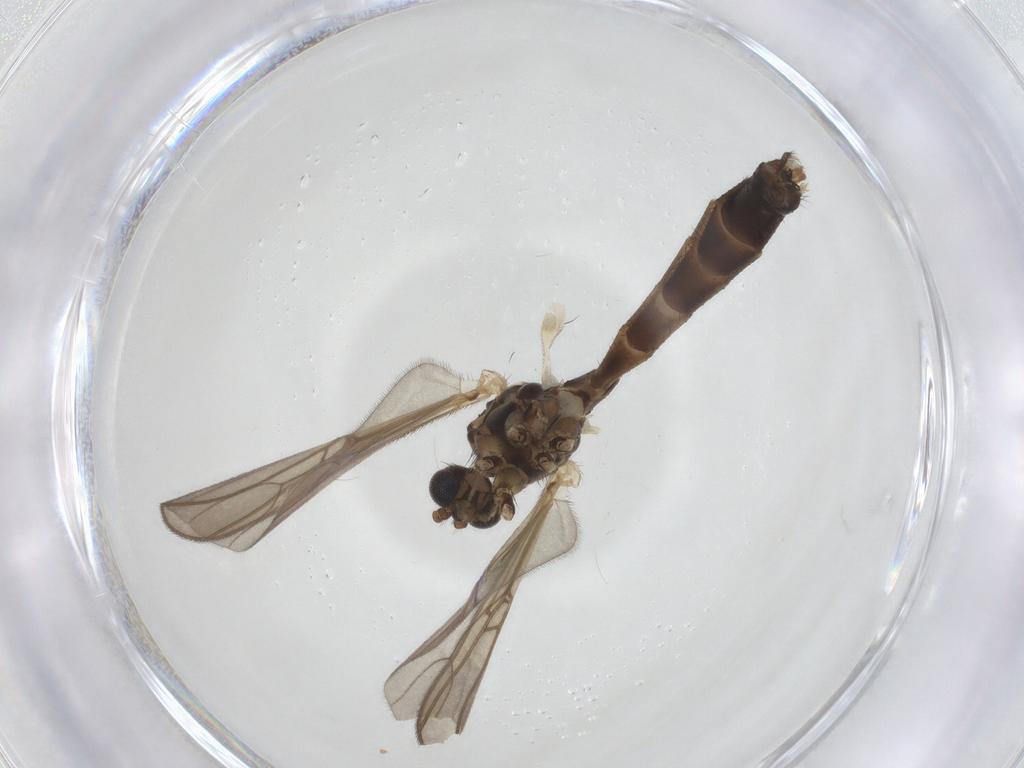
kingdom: Animalia
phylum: Arthropoda
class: Insecta
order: Diptera
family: Mycetophilidae
